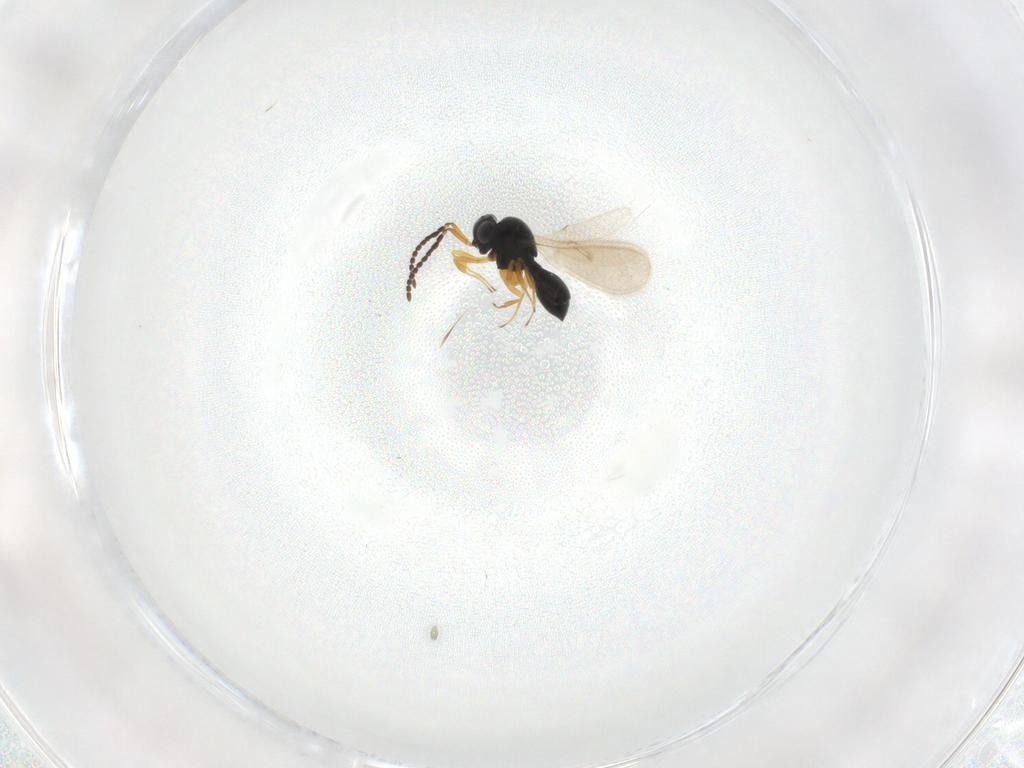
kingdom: Animalia
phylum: Arthropoda
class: Insecta
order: Hymenoptera
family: Scelionidae
